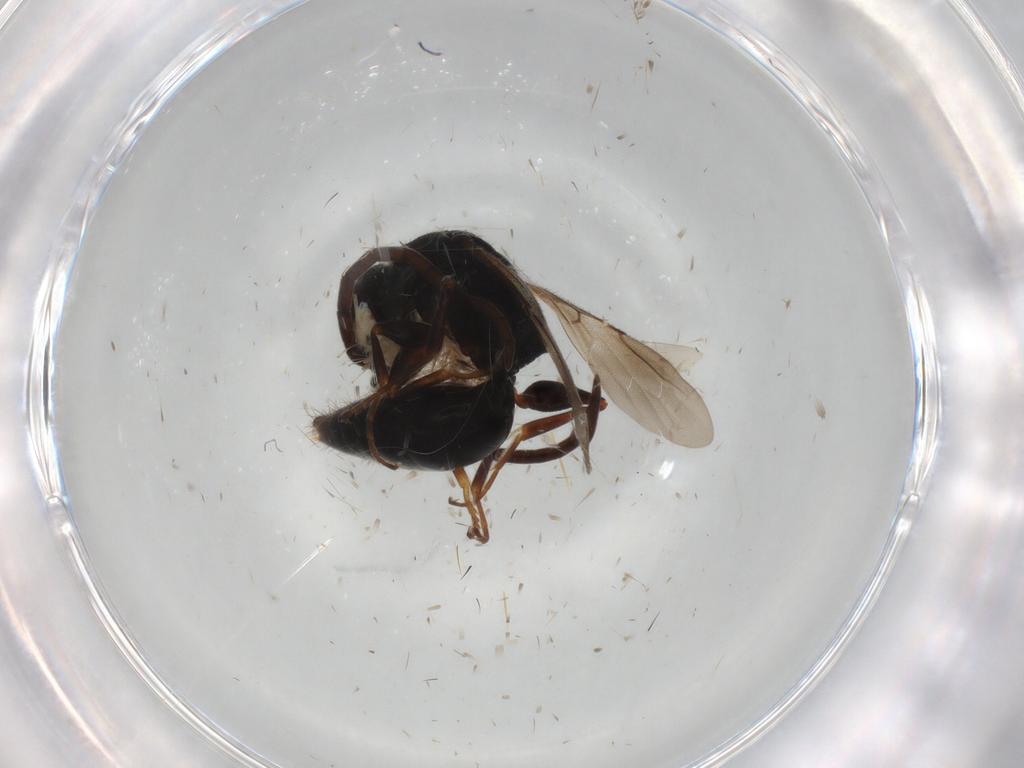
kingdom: Animalia
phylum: Arthropoda
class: Insecta
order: Hymenoptera
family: Bethylidae
